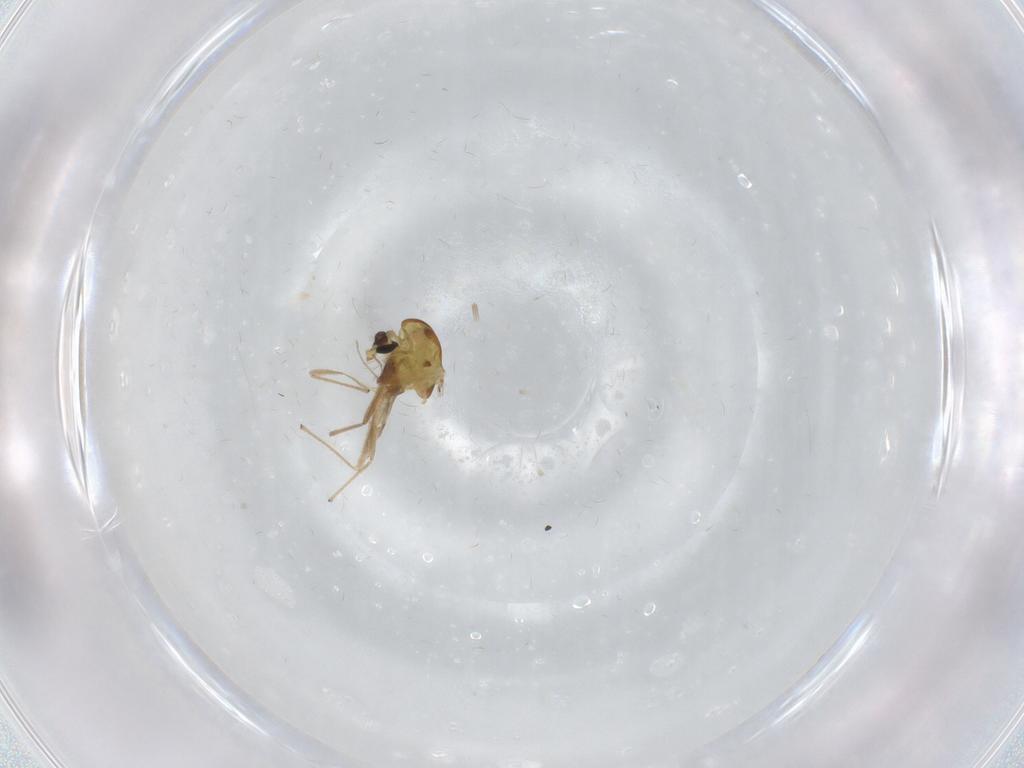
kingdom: Animalia
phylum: Arthropoda
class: Insecta
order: Diptera
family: Chironomidae
